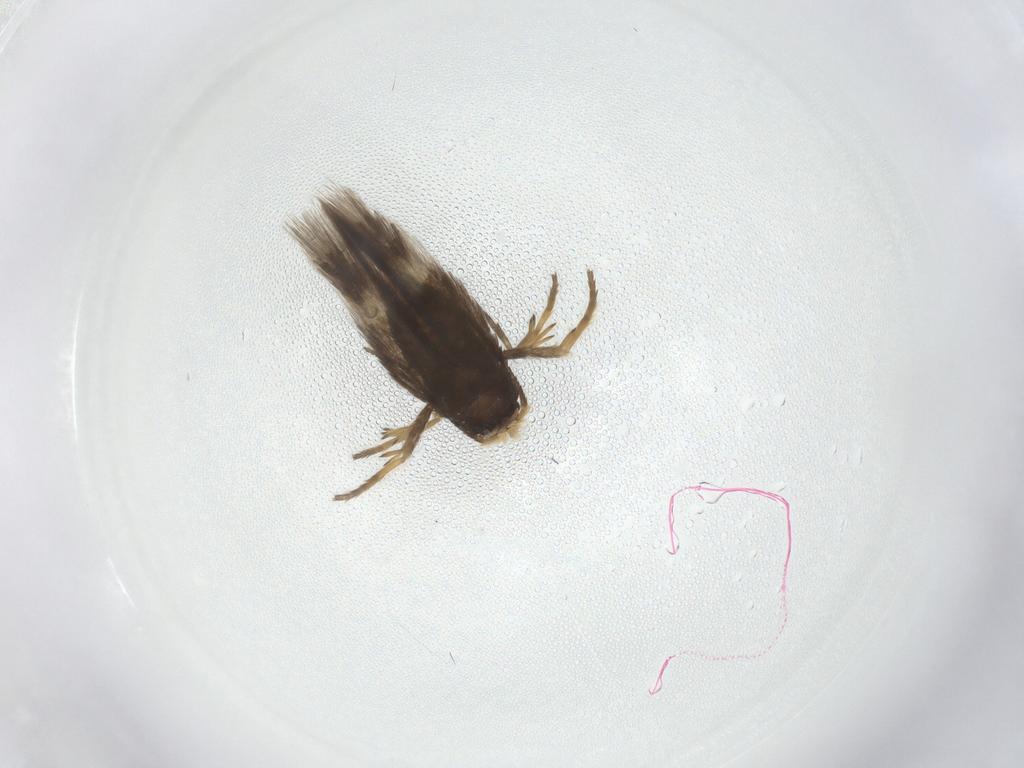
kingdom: Animalia
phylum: Arthropoda
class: Insecta
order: Lepidoptera
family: Nepticulidae
